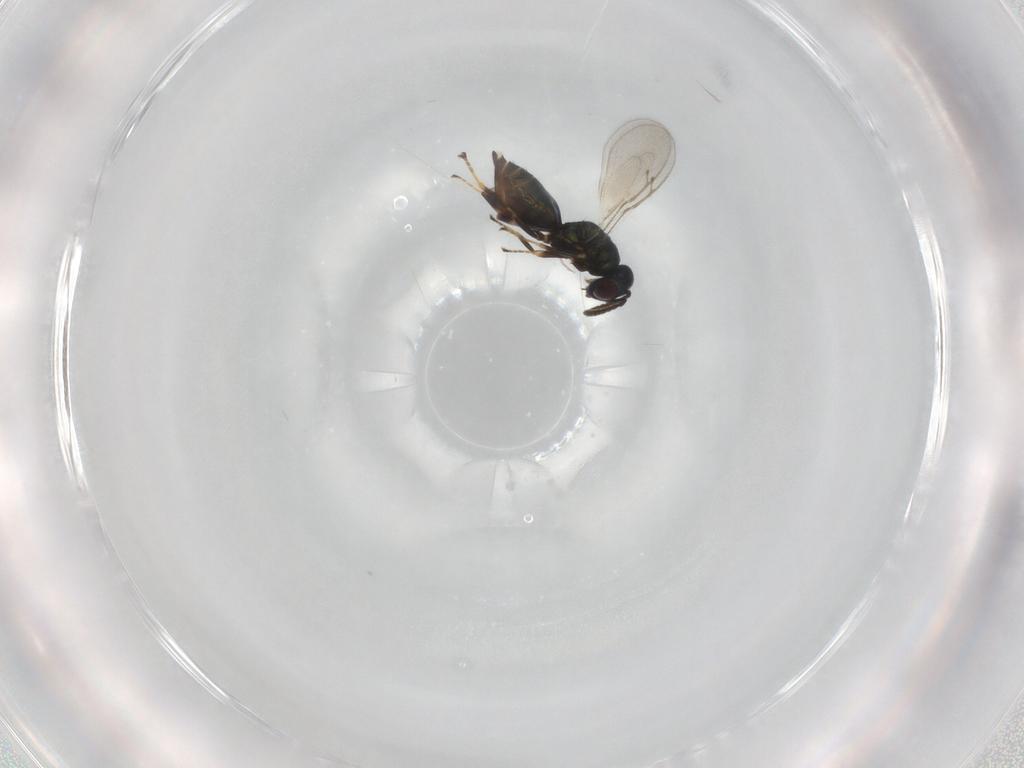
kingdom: Animalia
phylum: Arthropoda
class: Insecta
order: Hymenoptera
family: Pteromalidae
